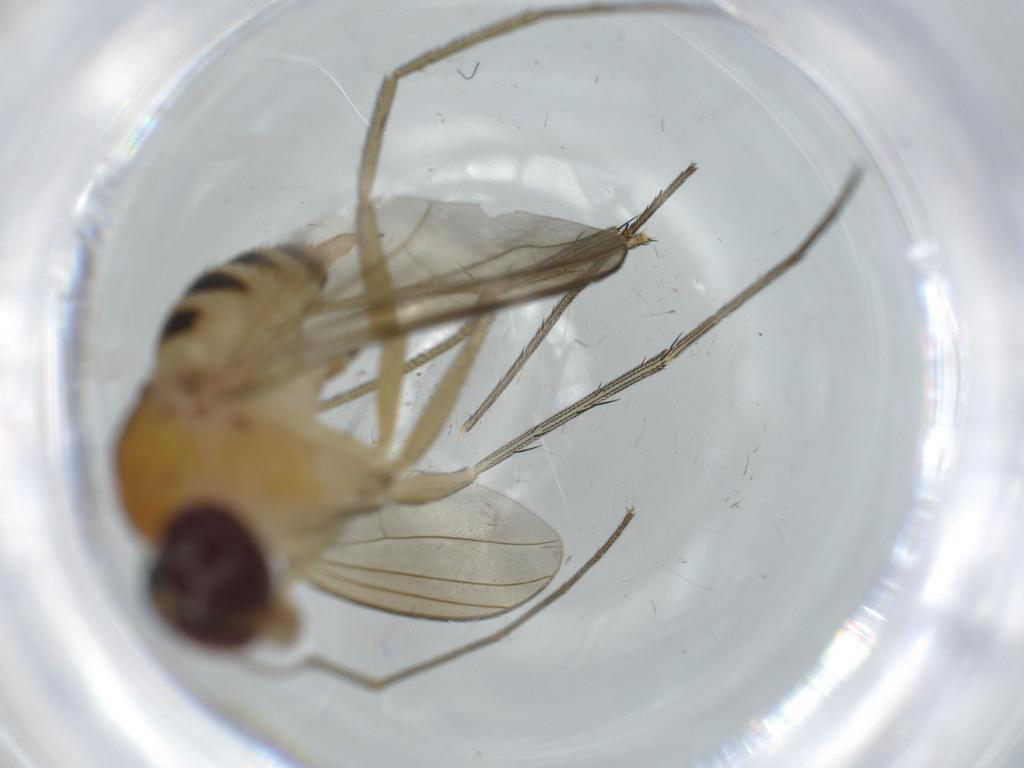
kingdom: Animalia
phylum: Arthropoda
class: Insecta
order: Diptera
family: Dolichopodidae
